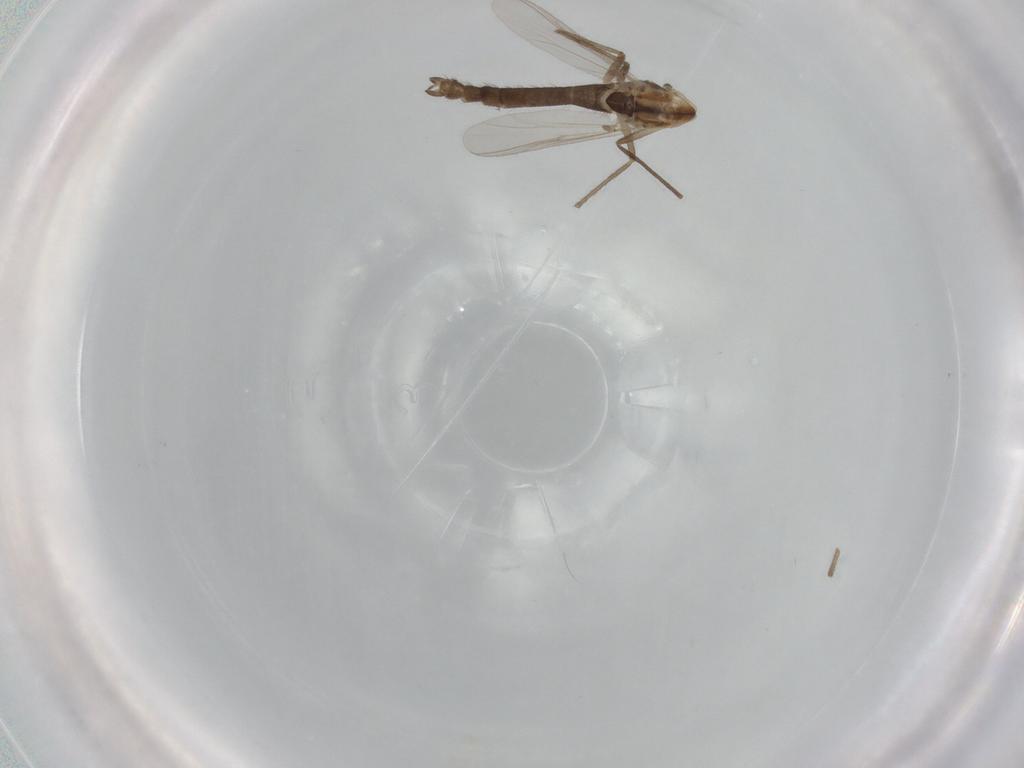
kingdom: Animalia
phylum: Arthropoda
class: Insecta
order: Diptera
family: Chironomidae
